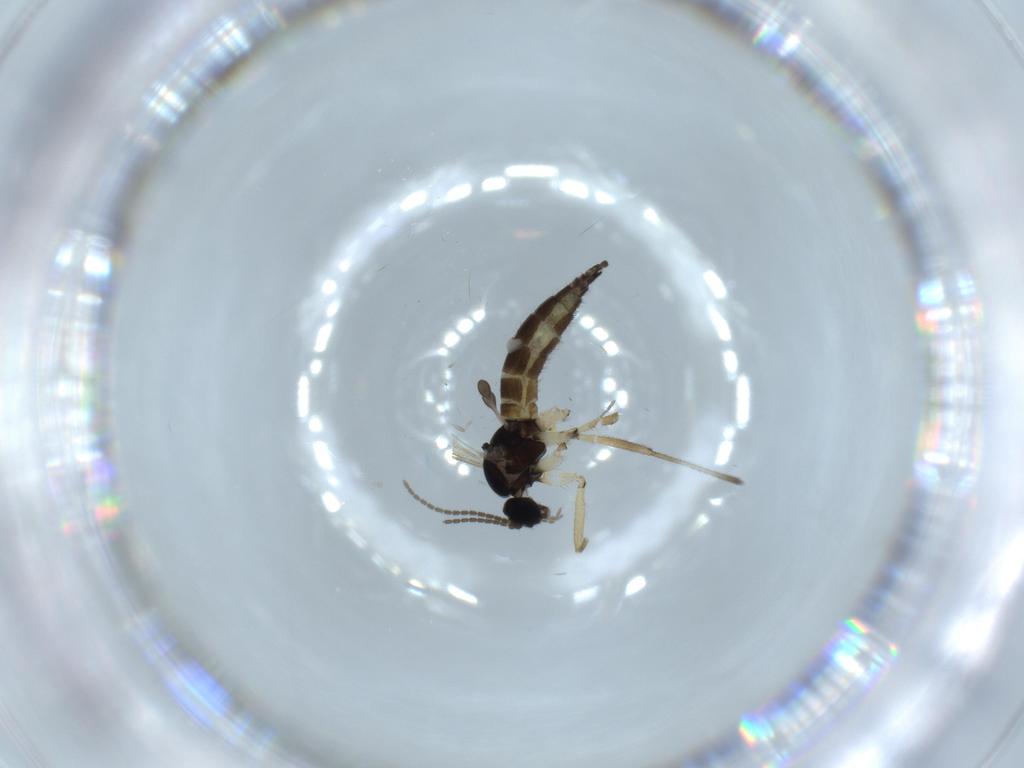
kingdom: Animalia
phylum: Arthropoda
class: Insecta
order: Diptera
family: Sciaridae
